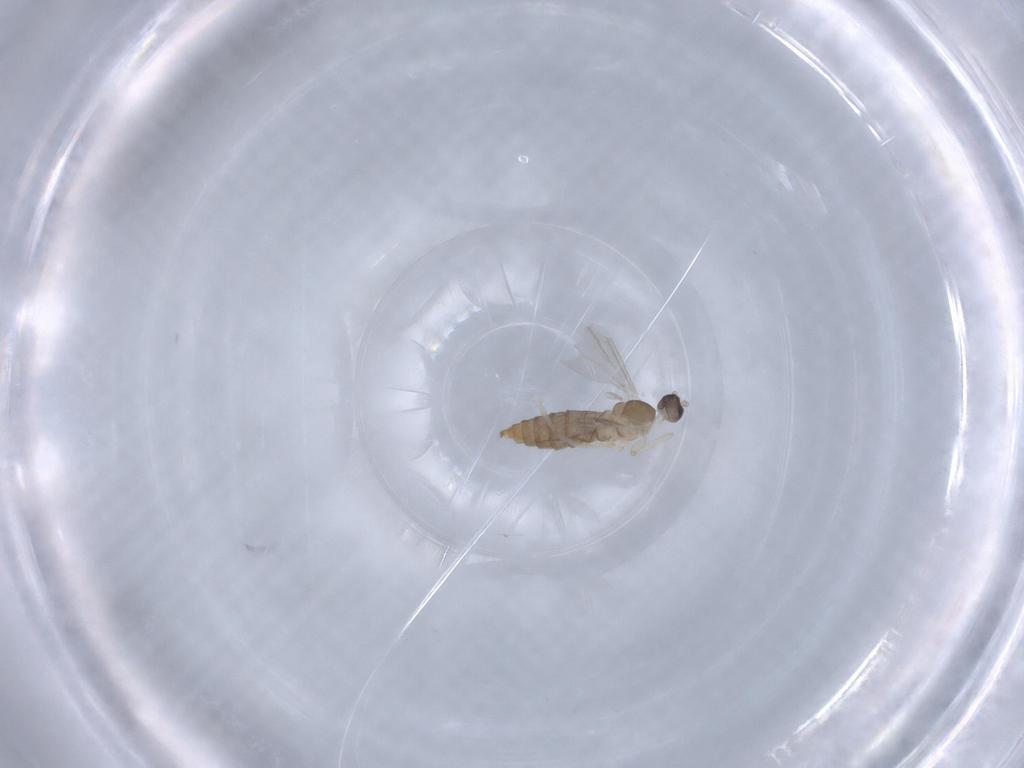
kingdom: Animalia
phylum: Arthropoda
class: Insecta
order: Diptera
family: Cecidomyiidae
